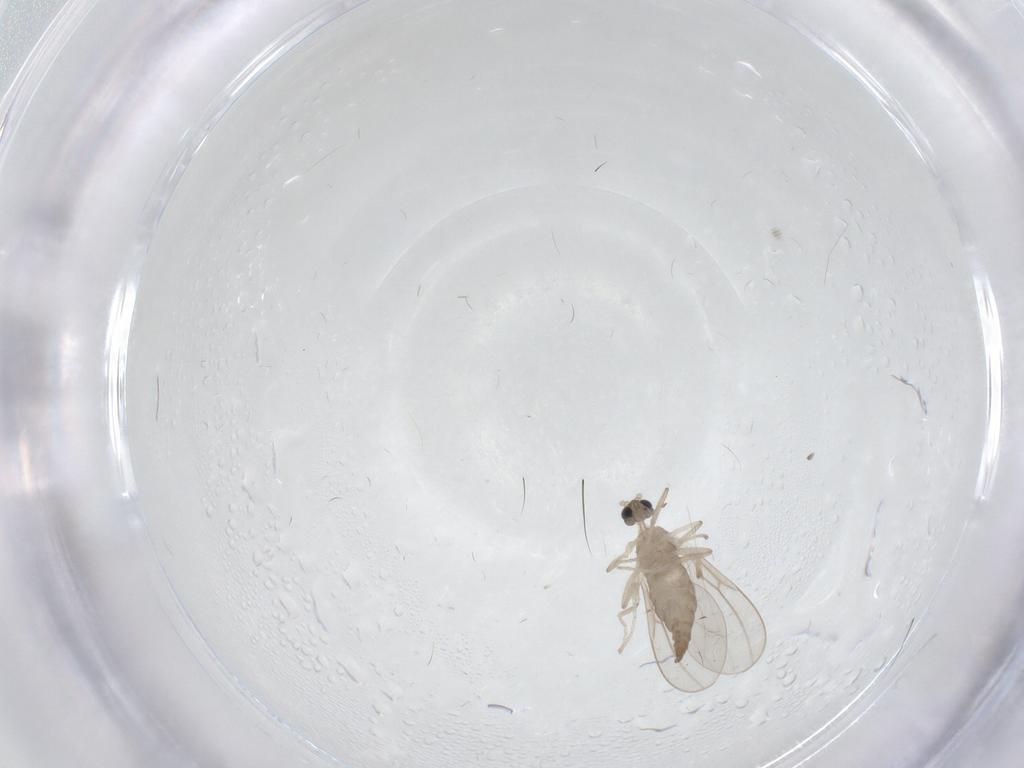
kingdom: Animalia
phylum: Arthropoda
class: Insecta
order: Diptera
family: Cecidomyiidae
